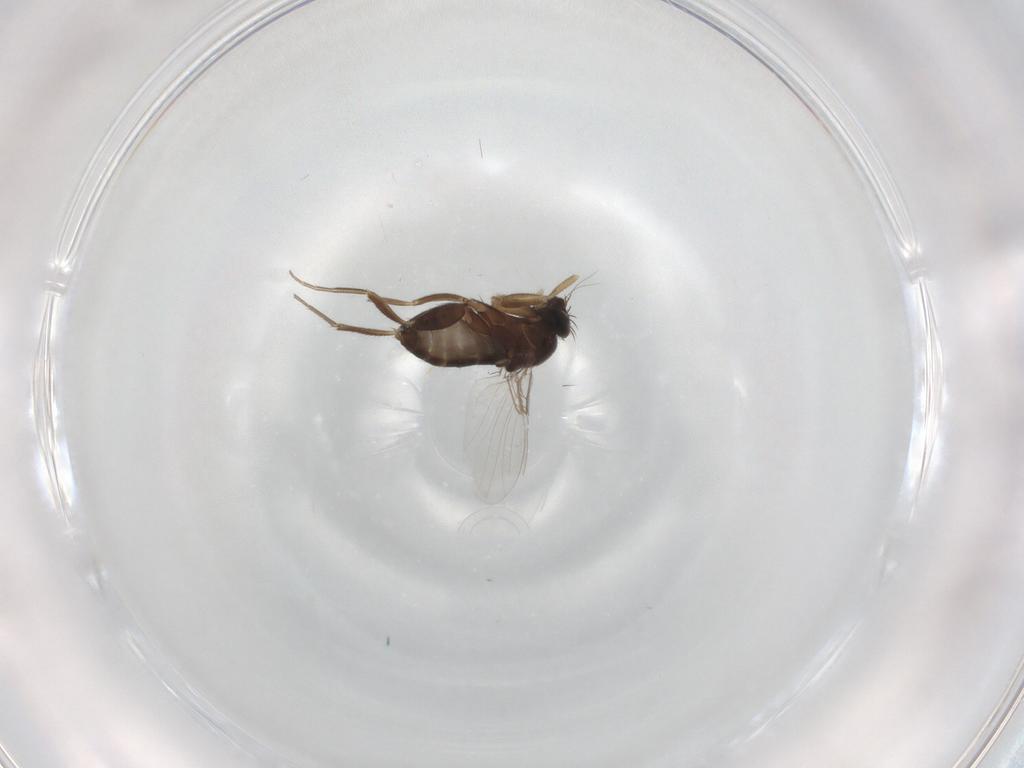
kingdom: Animalia
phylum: Arthropoda
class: Insecta
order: Diptera
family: Phoridae
